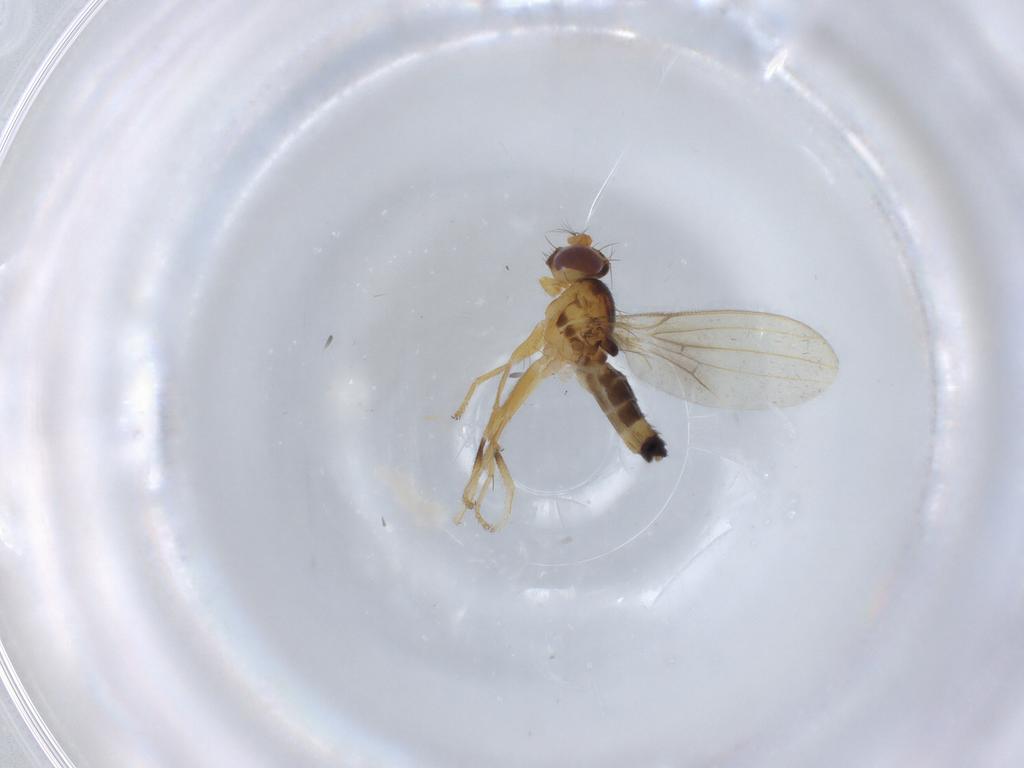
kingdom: Animalia
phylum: Arthropoda
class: Insecta
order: Diptera
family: Periscelididae
